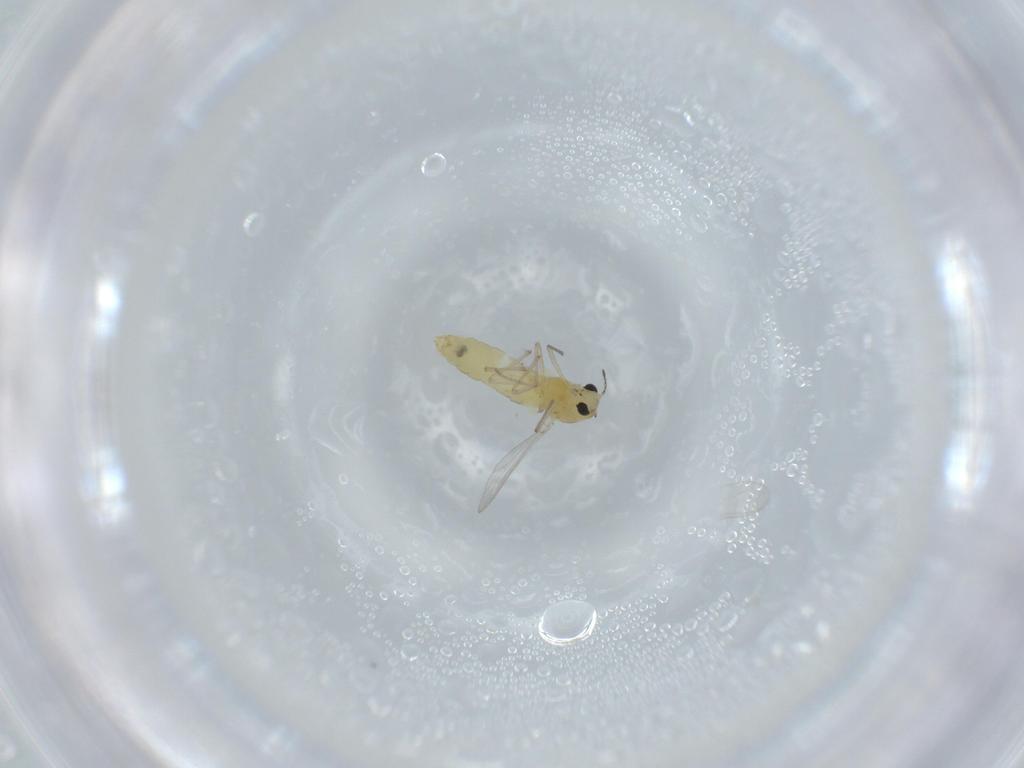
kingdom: Animalia
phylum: Arthropoda
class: Insecta
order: Diptera
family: Chironomidae
